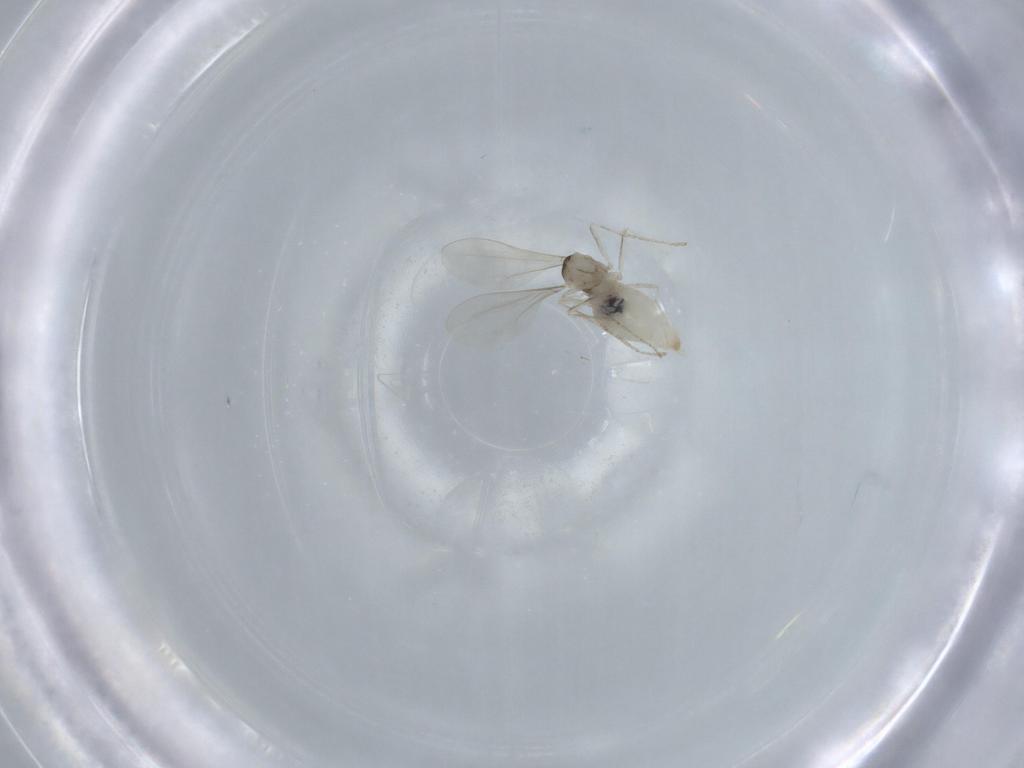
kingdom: Animalia
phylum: Arthropoda
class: Insecta
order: Diptera
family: Cecidomyiidae
